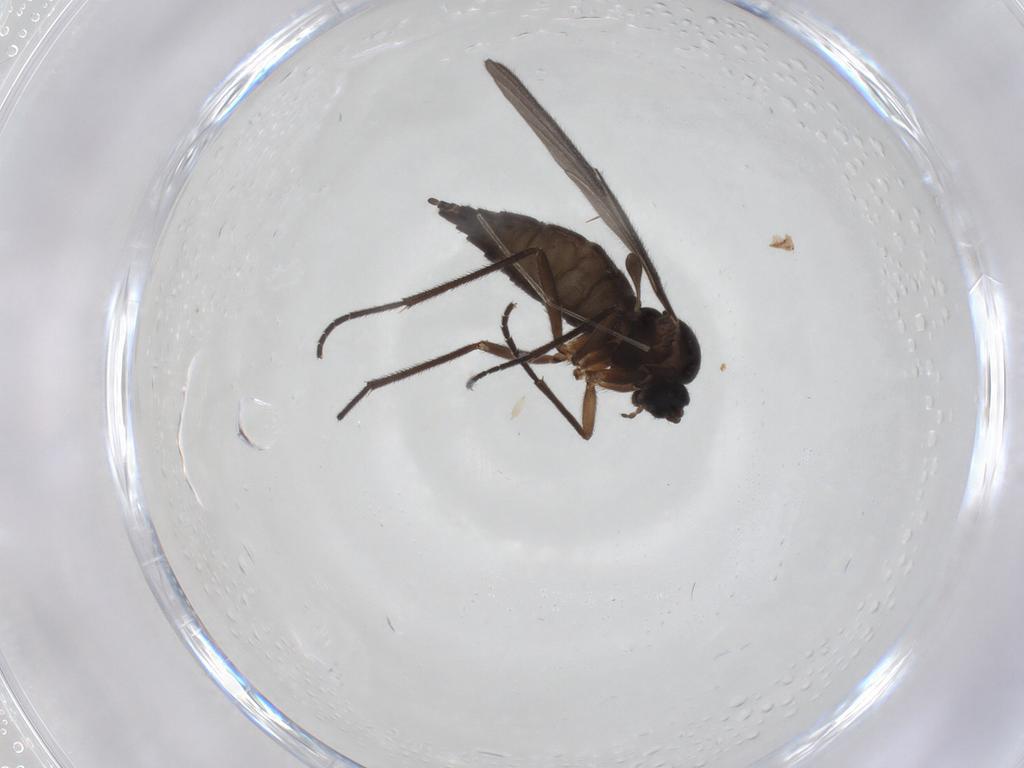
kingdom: Animalia
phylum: Arthropoda
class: Insecta
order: Diptera
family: Sciaridae
